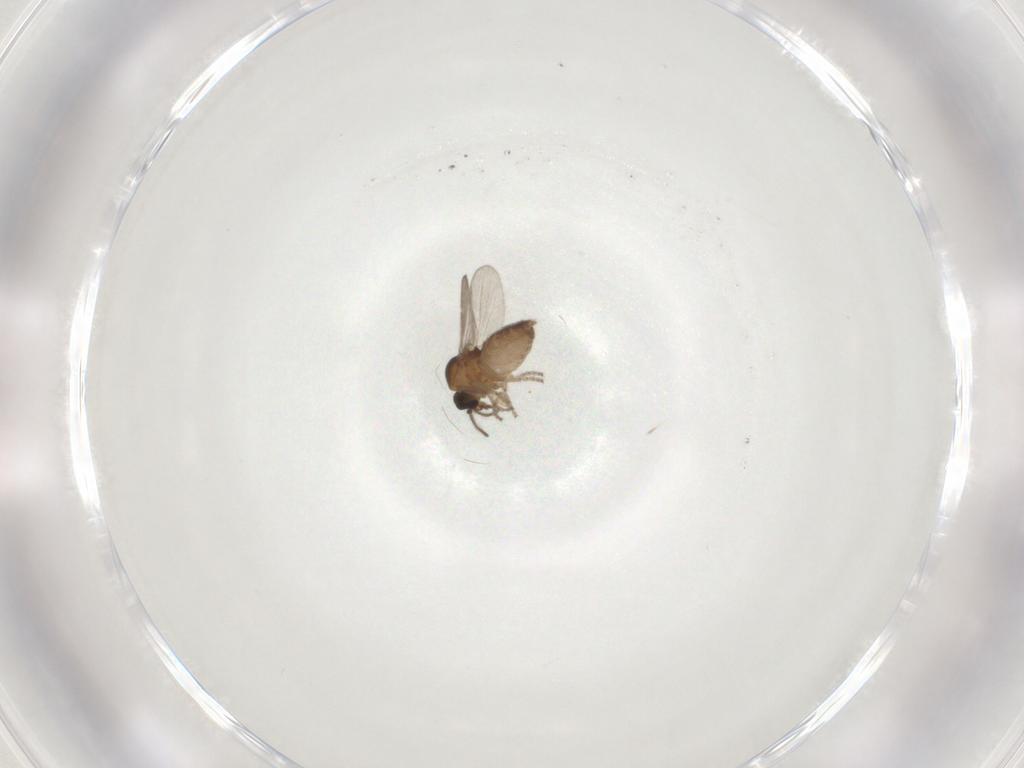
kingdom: Animalia
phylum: Arthropoda
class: Insecta
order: Diptera
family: Ceratopogonidae
